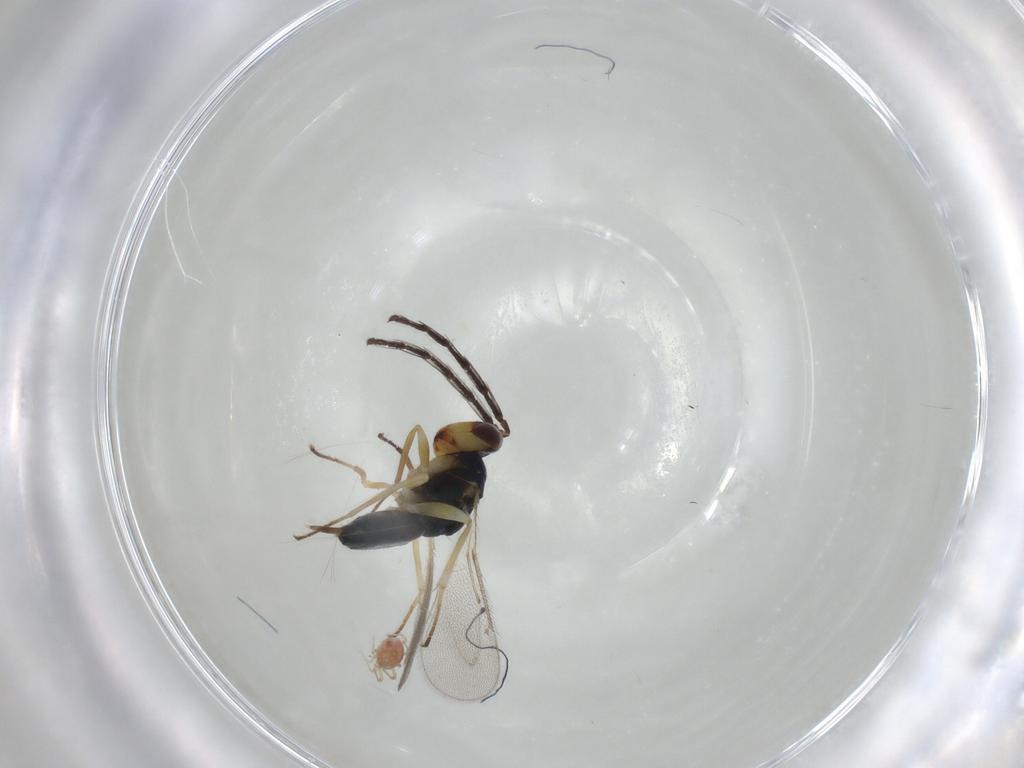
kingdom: Animalia
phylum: Arthropoda
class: Insecta
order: Hymenoptera
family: Eulophidae
